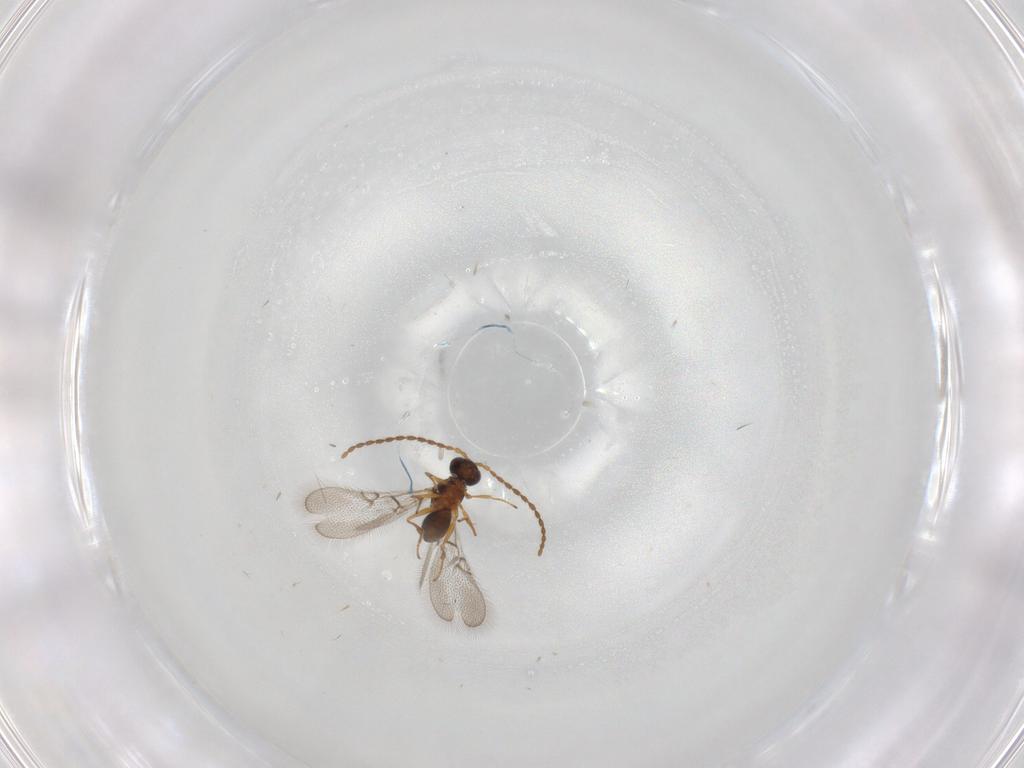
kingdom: Animalia
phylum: Arthropoda
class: Insecta
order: Hymenoptera
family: Figitidae
